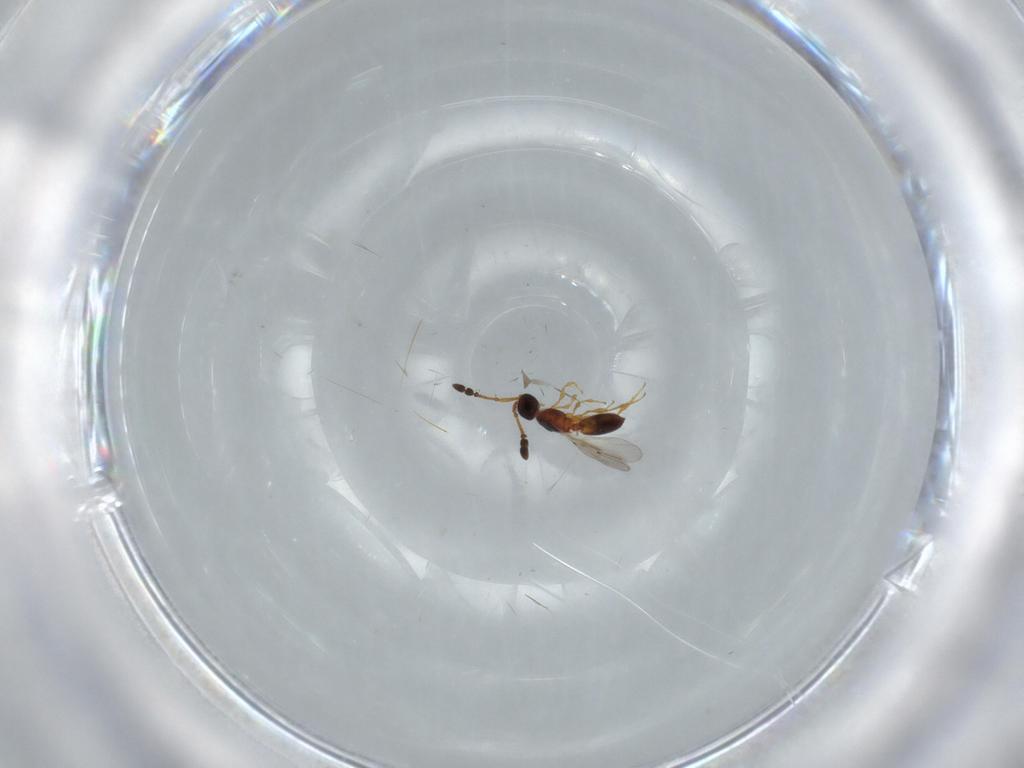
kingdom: Animalia
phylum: Arthropoda
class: Insecta
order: Hymenoptera
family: Diapriidae
